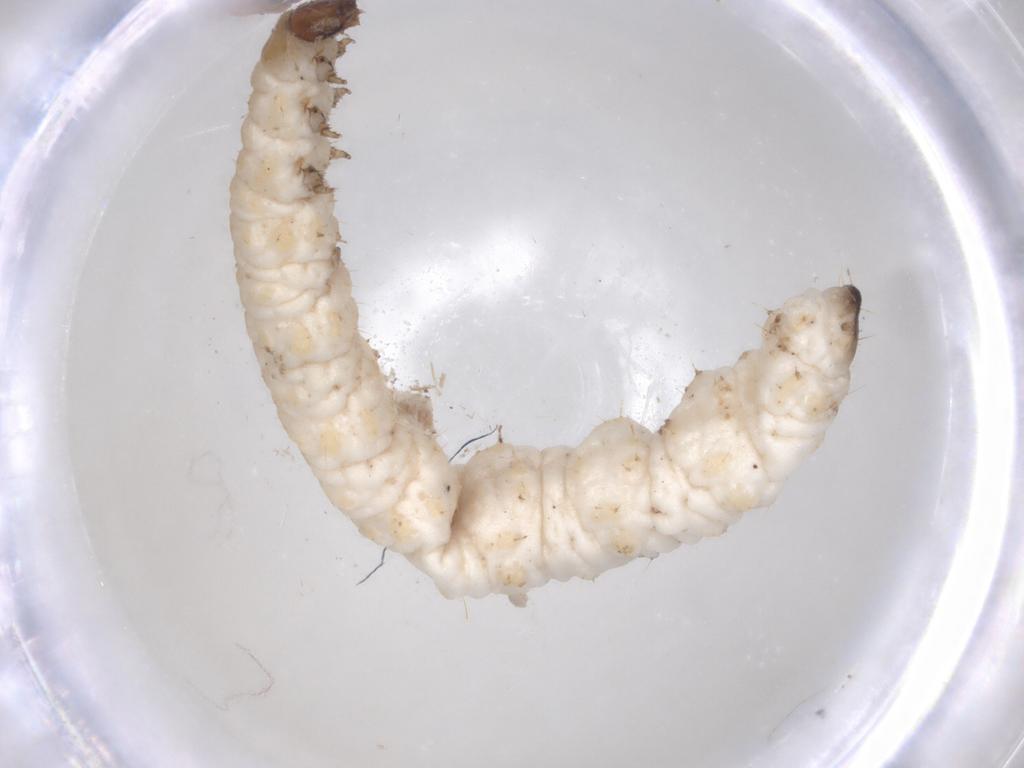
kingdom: Animalia
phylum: Arthropoda
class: Insecta
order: Coleoptera
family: Chrysomelidae
